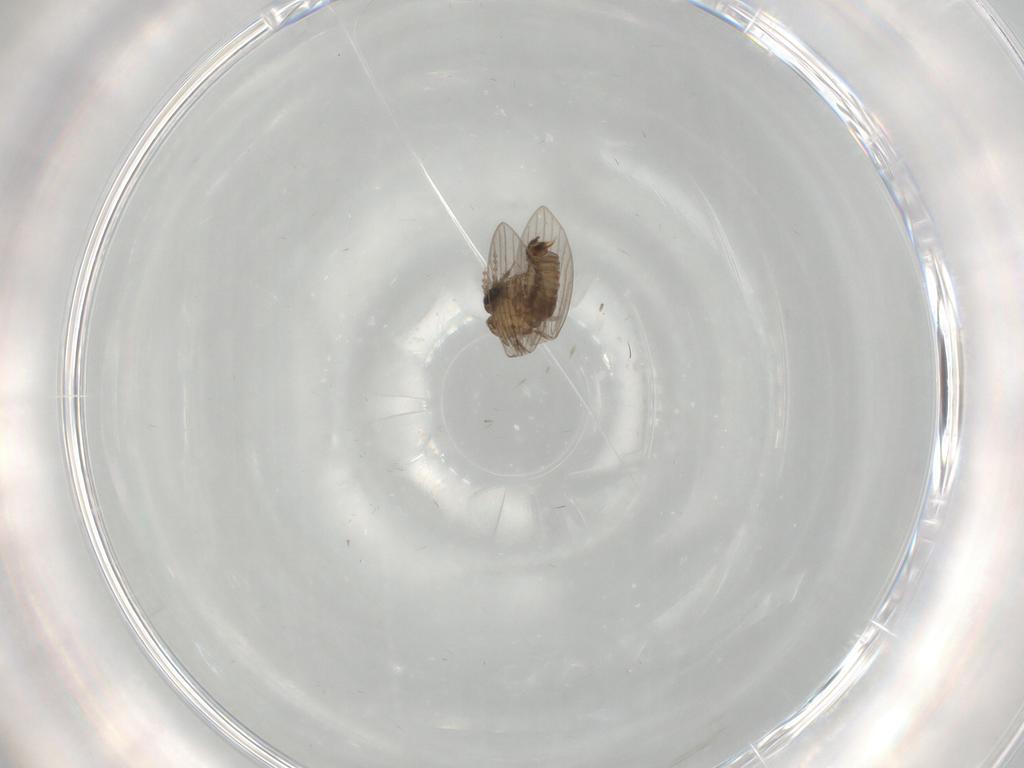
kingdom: Animalia
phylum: Arthropoda
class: Insecta
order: Diptera
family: Psychodidae
